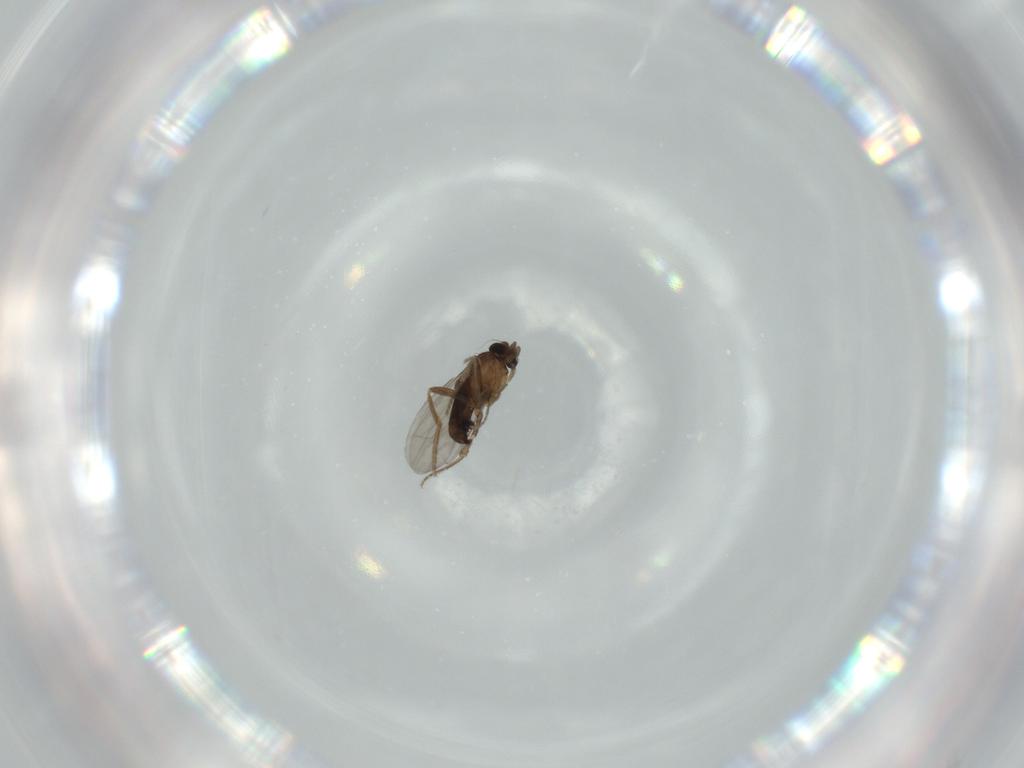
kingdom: Animalia
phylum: Arthropoda
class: Insecta
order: Diptera
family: Phoridae
